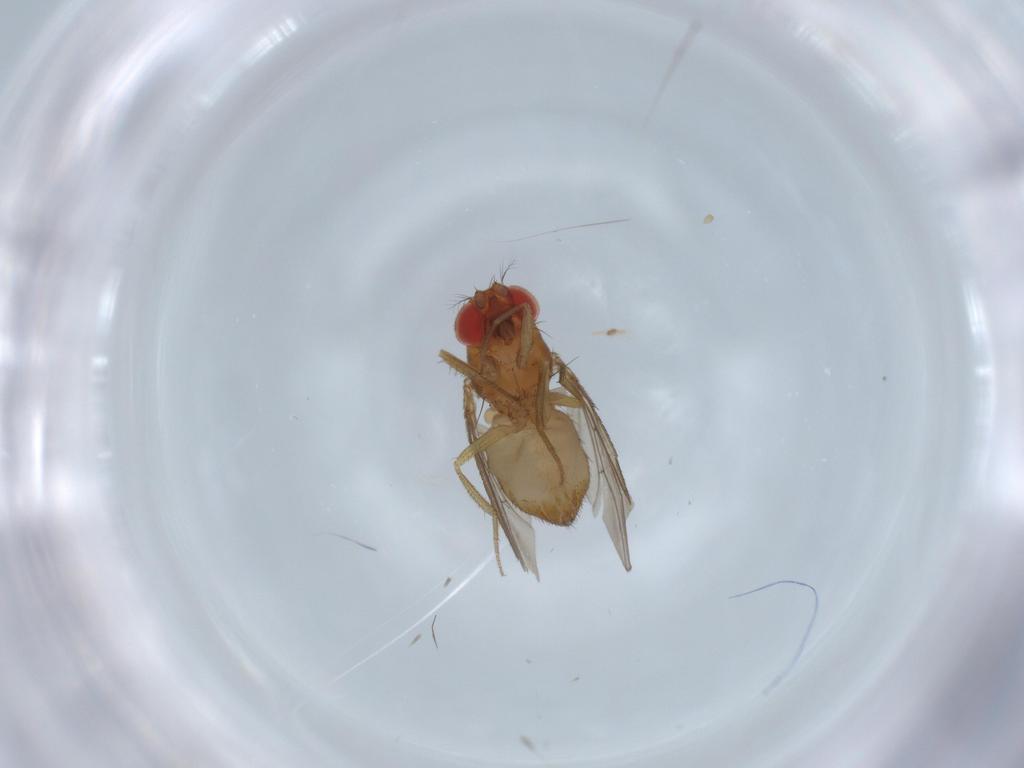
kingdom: Animalia
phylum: Arthropoda
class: Insecta
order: Diptera
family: Drosophilidae
